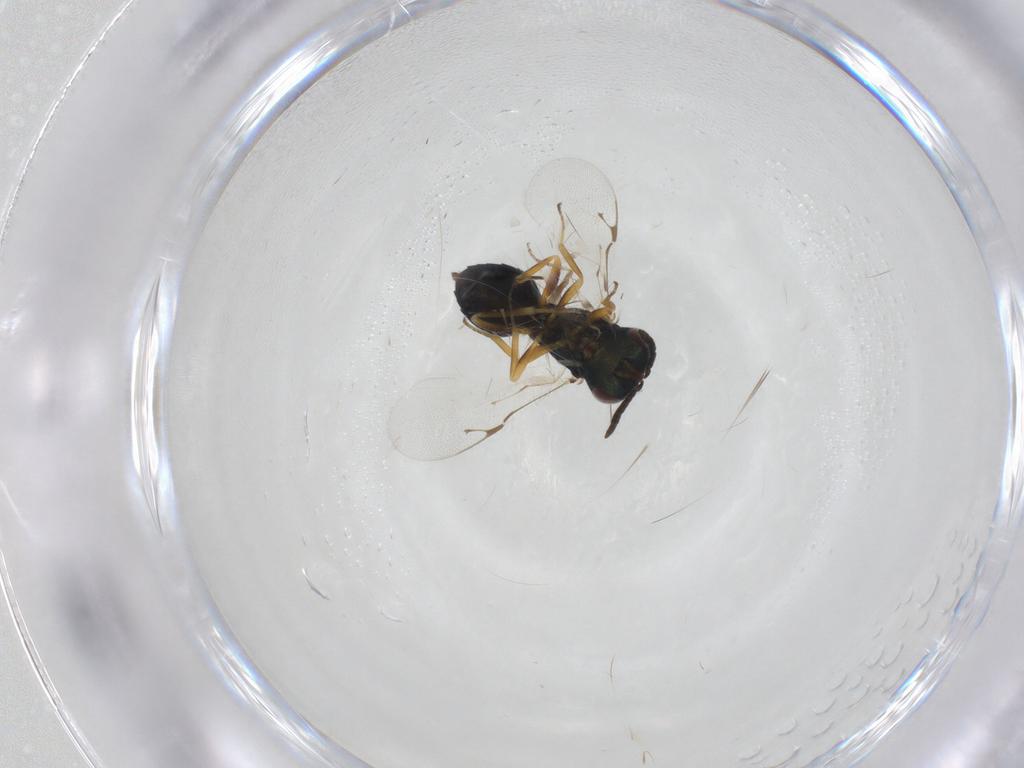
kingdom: Animalia
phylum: Arthropoda
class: Insecta
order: Hymenoptera
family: Pteromalidae
